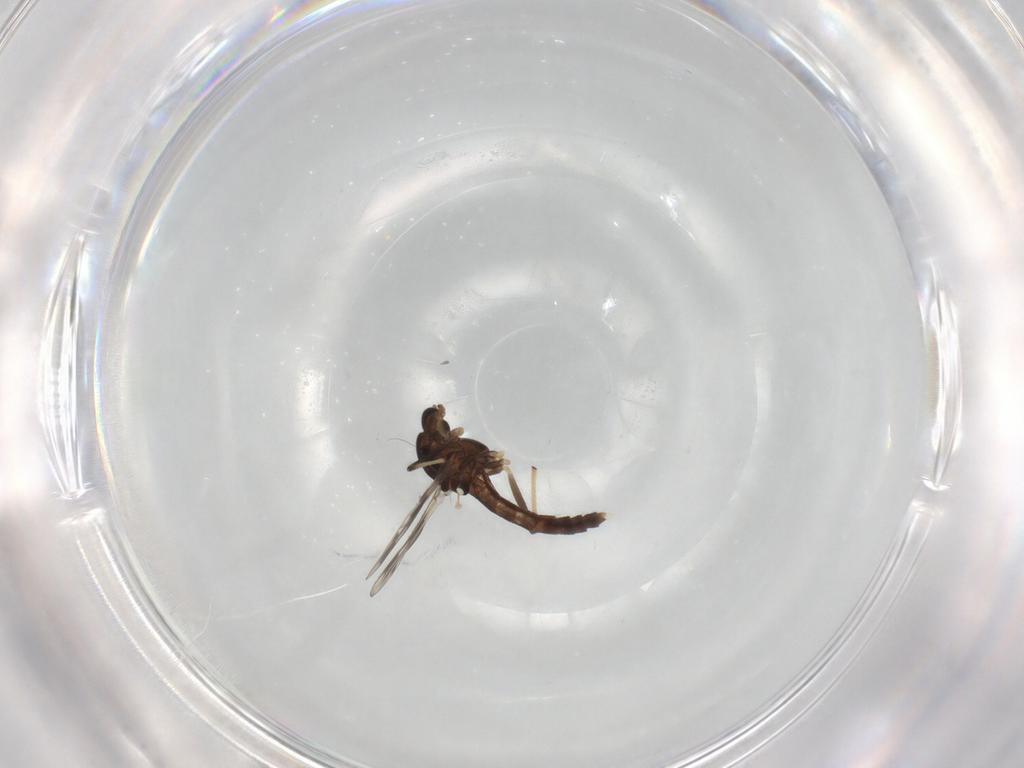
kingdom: Animalia
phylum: Arthropoda
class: Insecta
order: Diptera
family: Chironomidae
